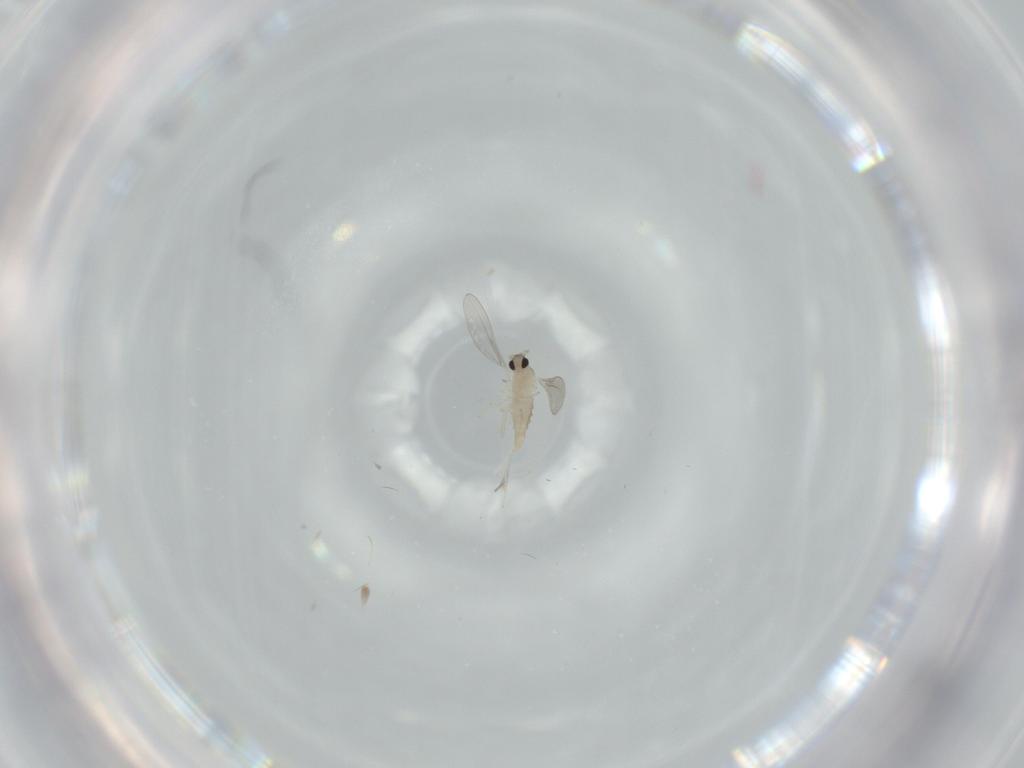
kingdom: Animalia
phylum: Arthropoda
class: Insecta
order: Diptera
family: Cecidomyiidae
